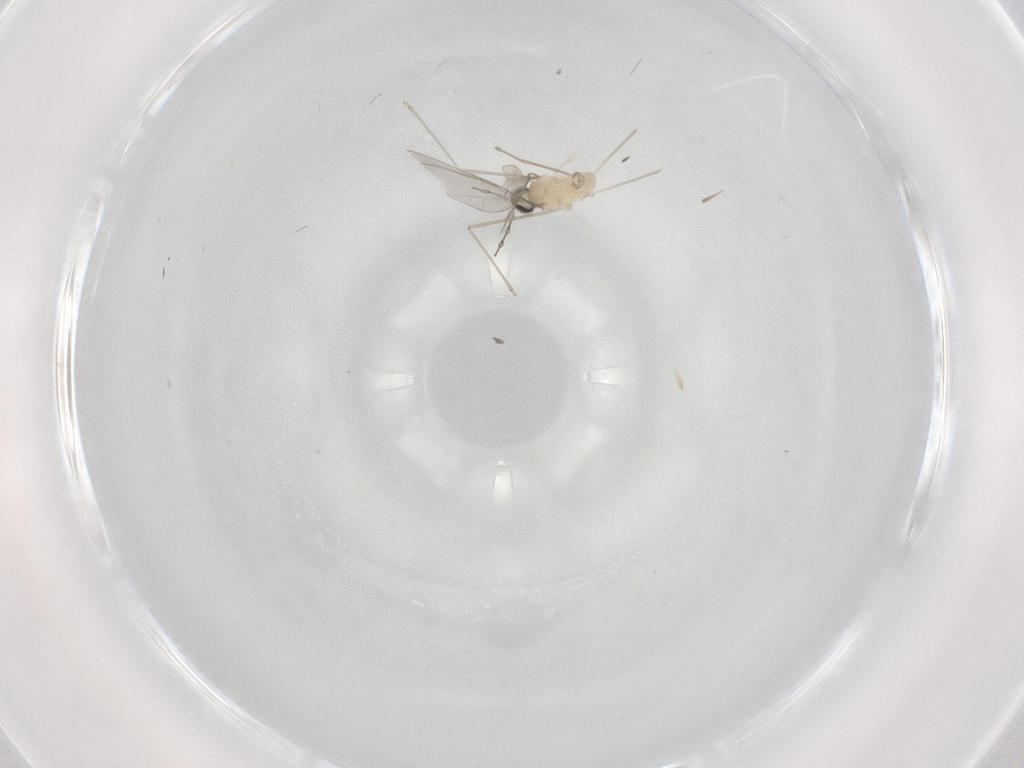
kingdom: Animalia
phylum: Arthropoda
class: Insecta
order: Diptera
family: Cecidomyiidae
